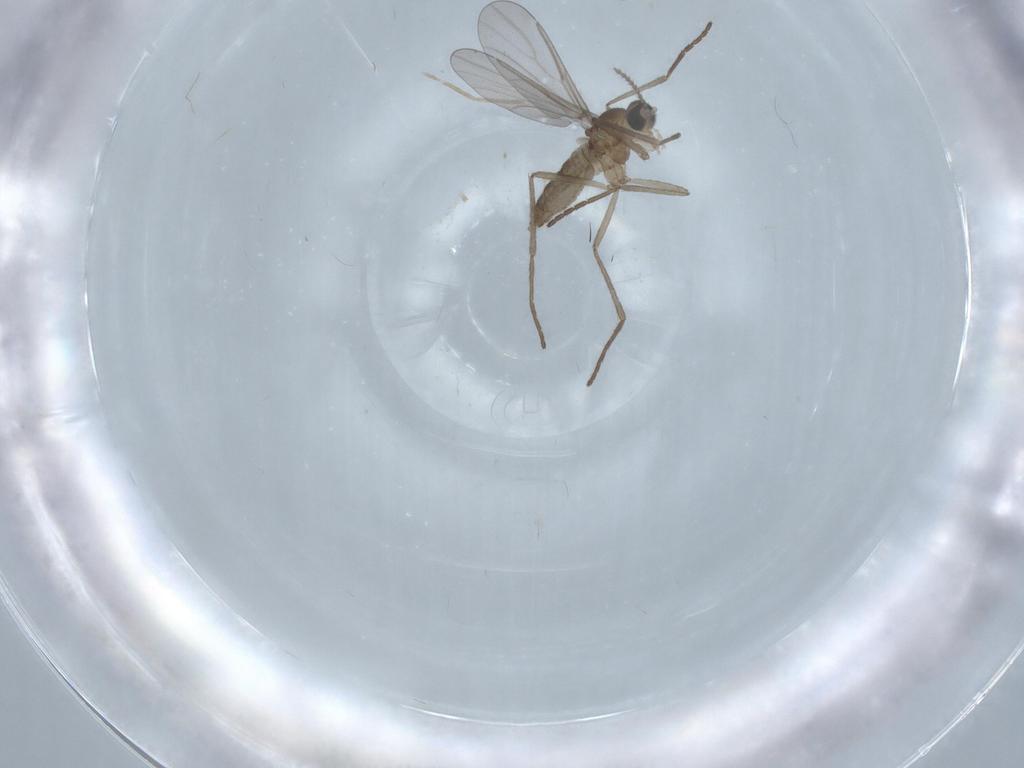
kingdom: Animalia
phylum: Arthropoda
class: Insecta
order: Diptera
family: Cecidomyiidae
